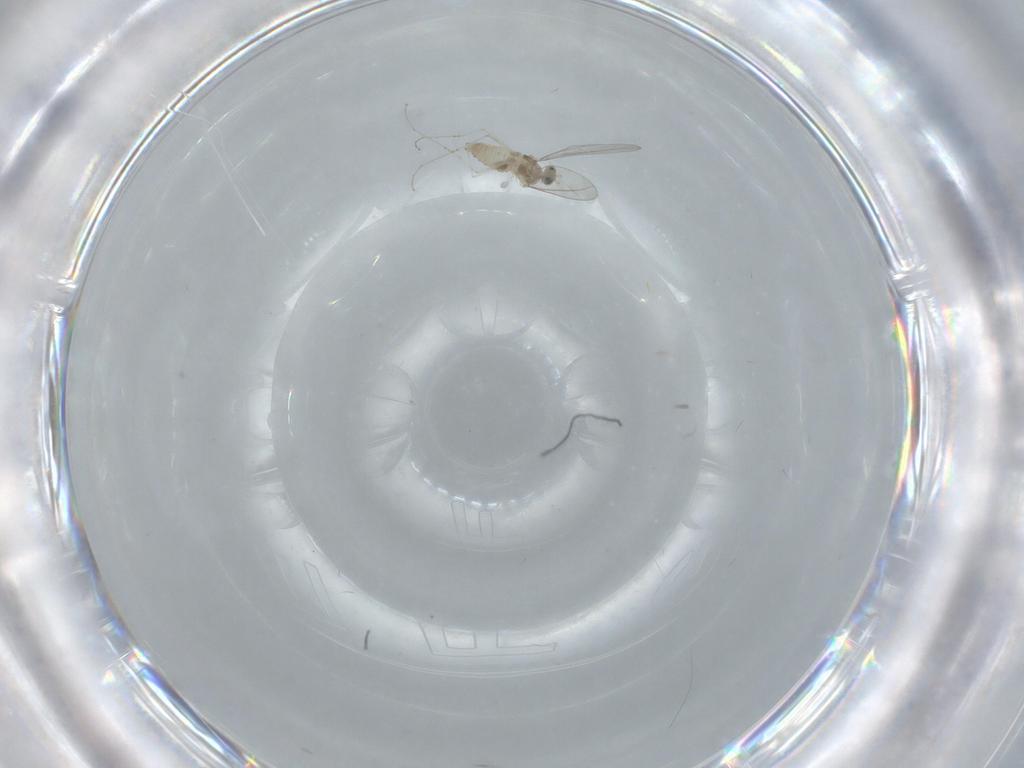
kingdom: Animalia
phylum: Arthropoda
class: Insecta
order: Diptera
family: Cecidomyiidae
